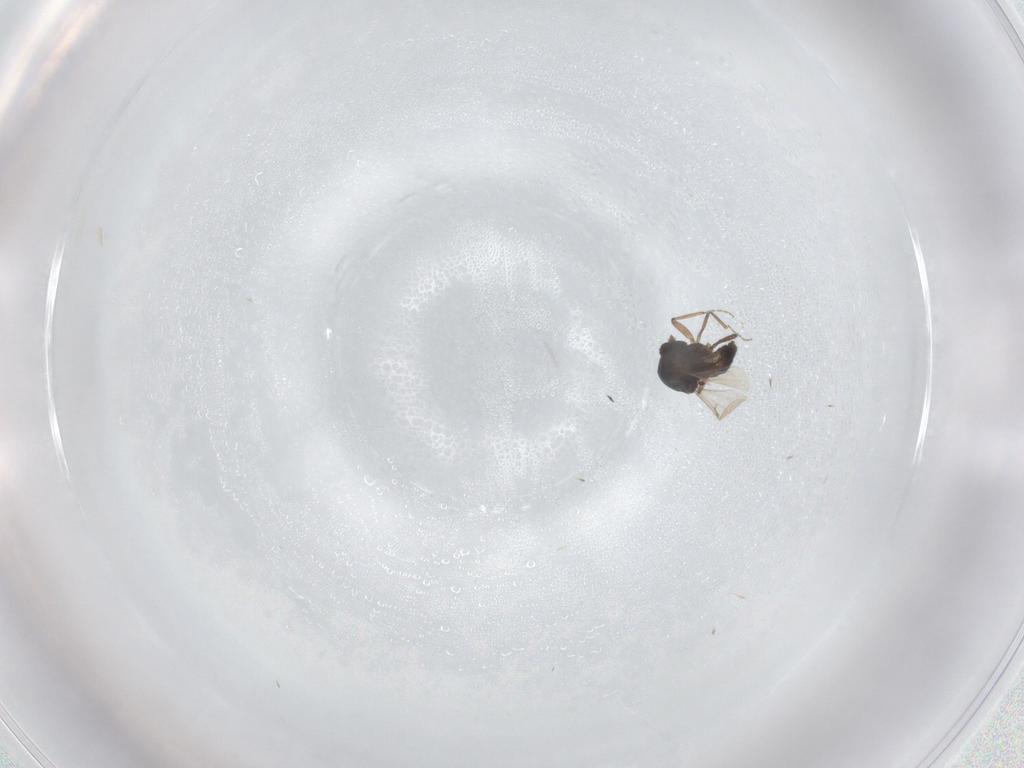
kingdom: Animalia
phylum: Arthropoda
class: Insecta
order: Diptera
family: Ceratopogonidae
